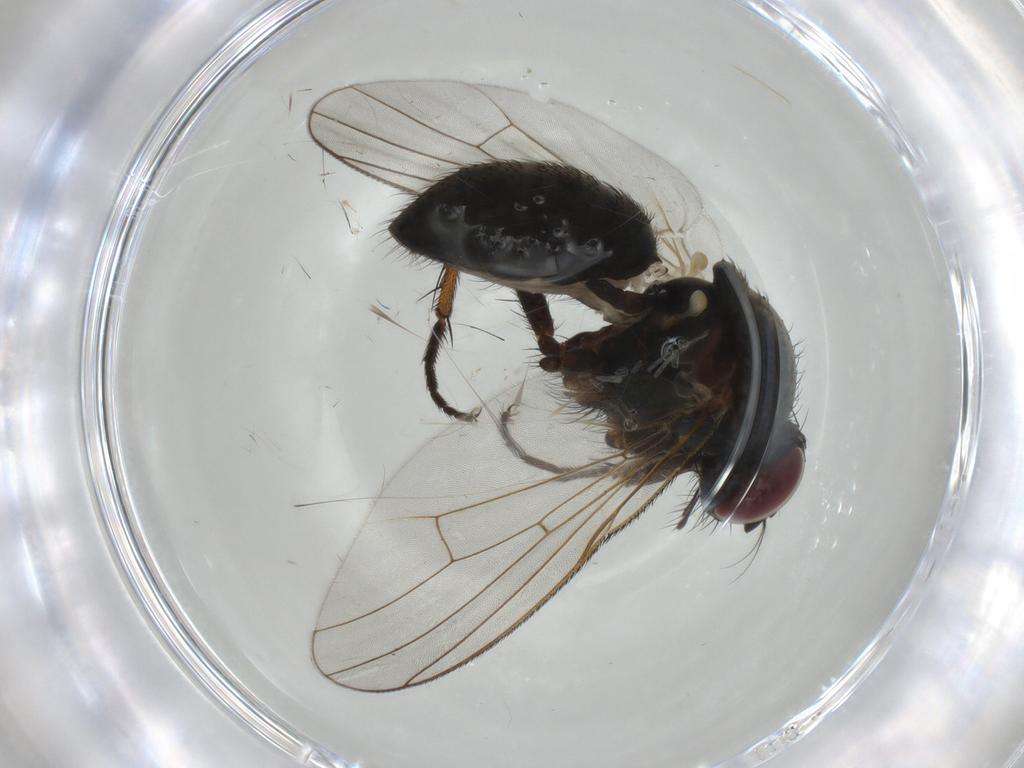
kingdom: Animalia
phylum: Arthropoda
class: Insecta
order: Diptera
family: Muscidae
